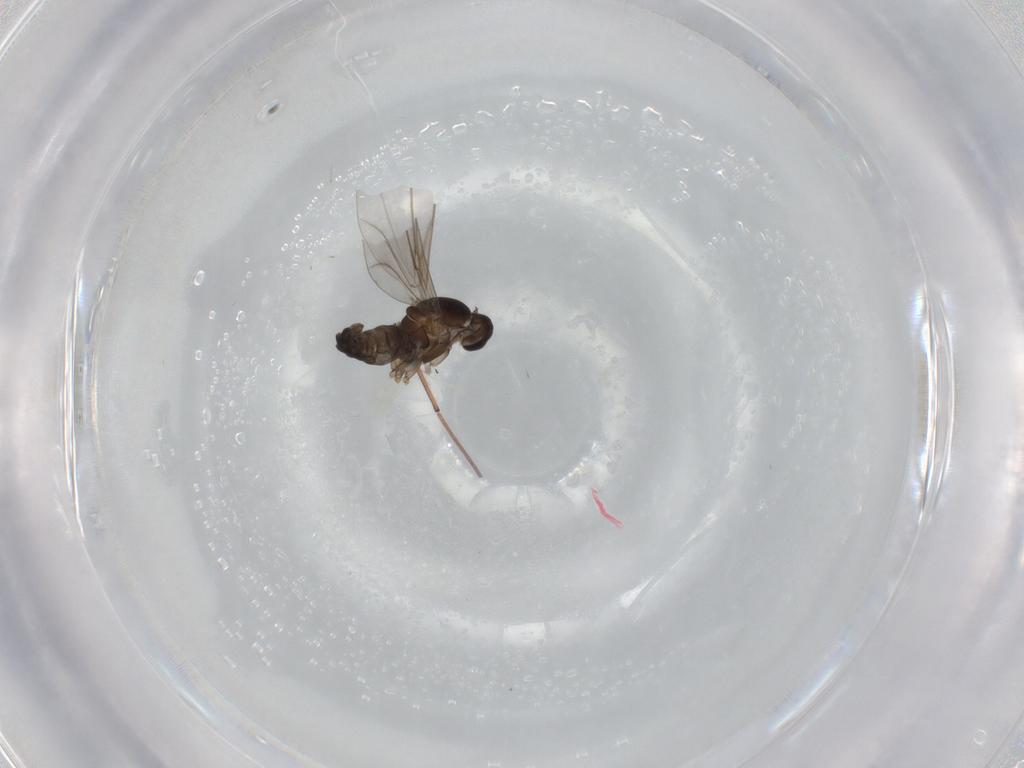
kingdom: Animalia
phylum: Arthropoda
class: Insecta
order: Diptera
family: Cecidomyiidae
